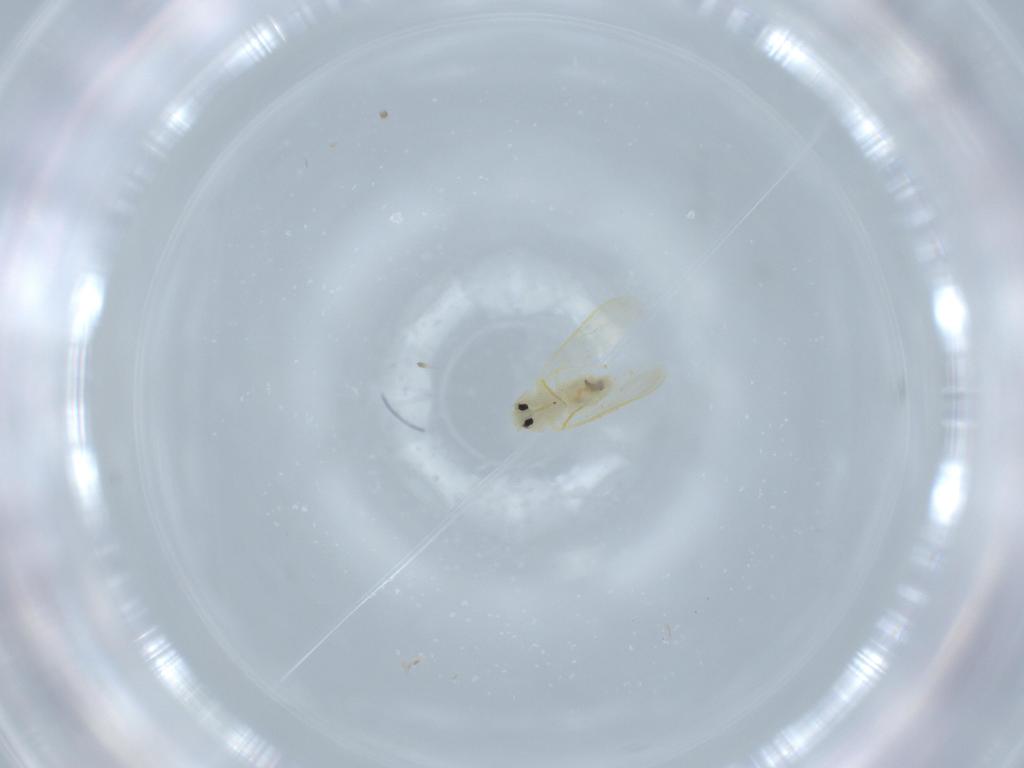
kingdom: Animalia
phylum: Arthropoda
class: Insecta
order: Hemiptera
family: Aleyrodidae
